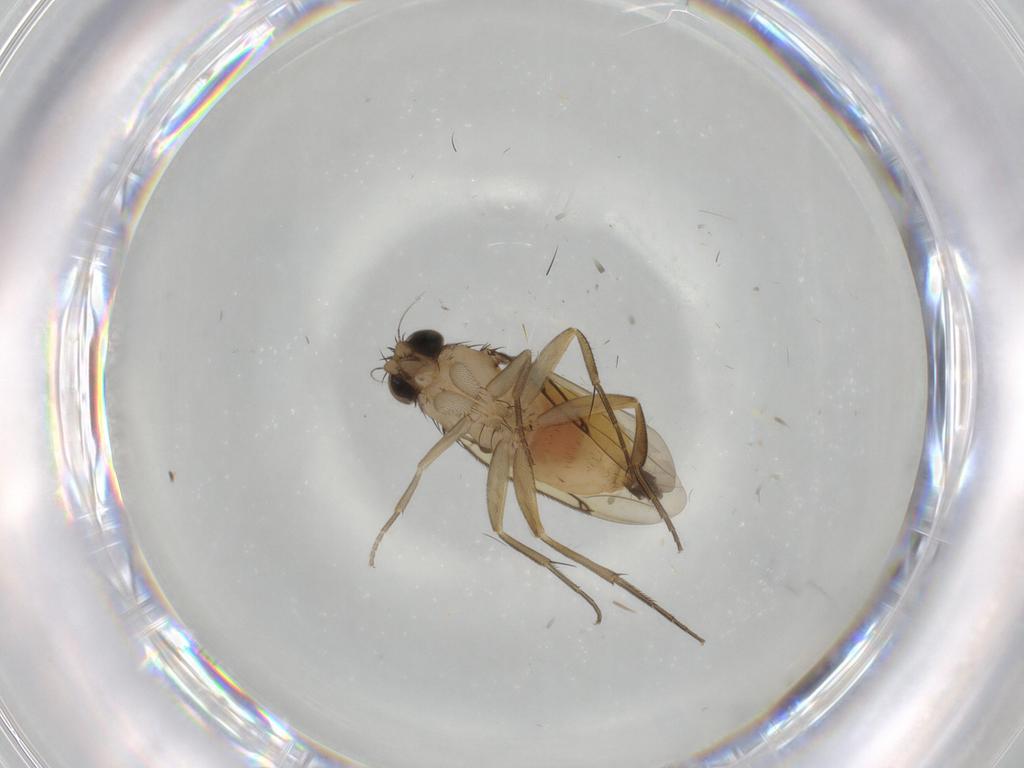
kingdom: Animalia
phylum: Arthropoda
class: Insecta
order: Diptera
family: Cecidomyiidae
